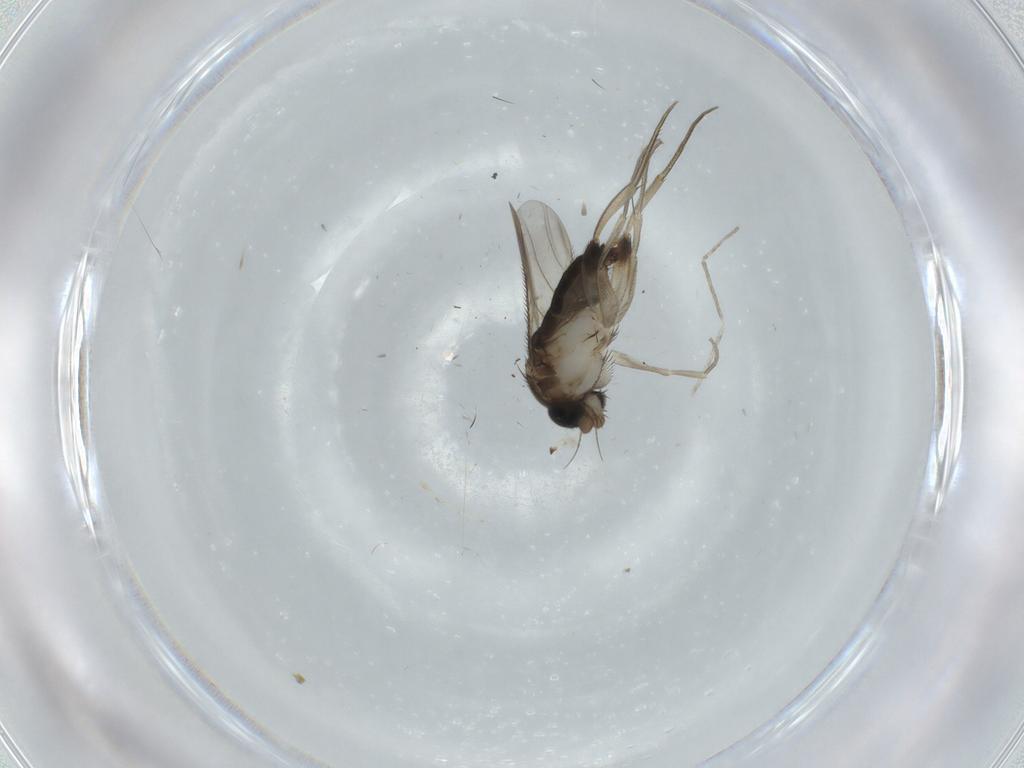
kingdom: Animalia
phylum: Arthropoda
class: Insecta
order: Diptera
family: Phoridae
